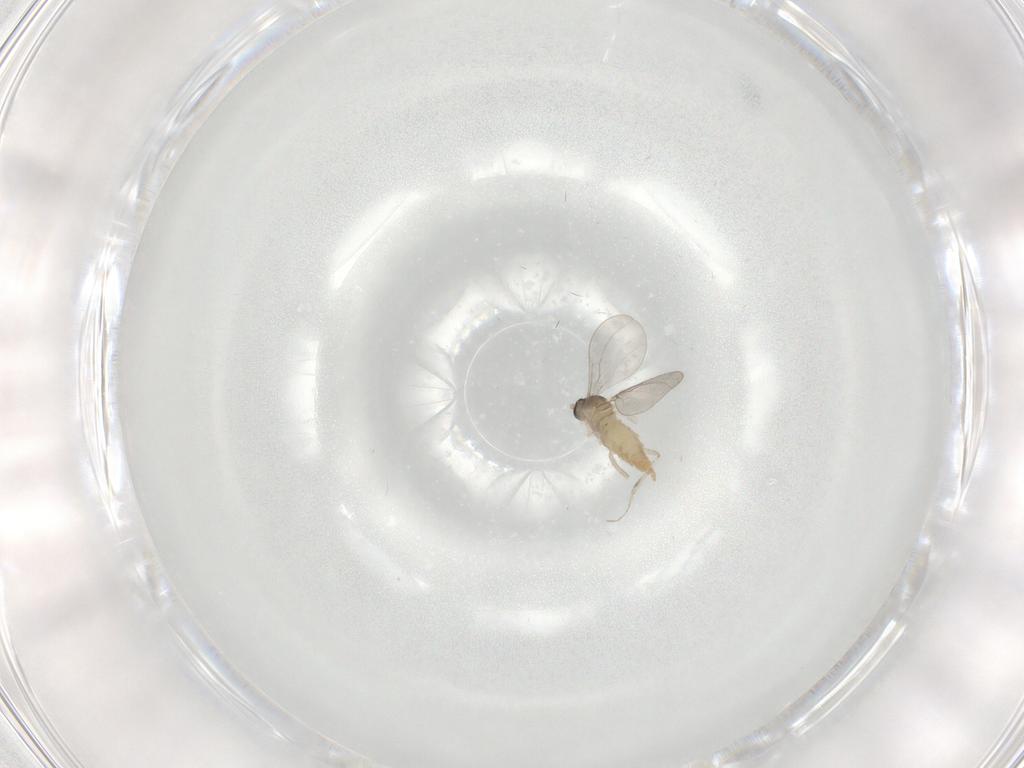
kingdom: Animalia
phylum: Arthropoda
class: Insecta
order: Diptera
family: Cecidomyiidae
